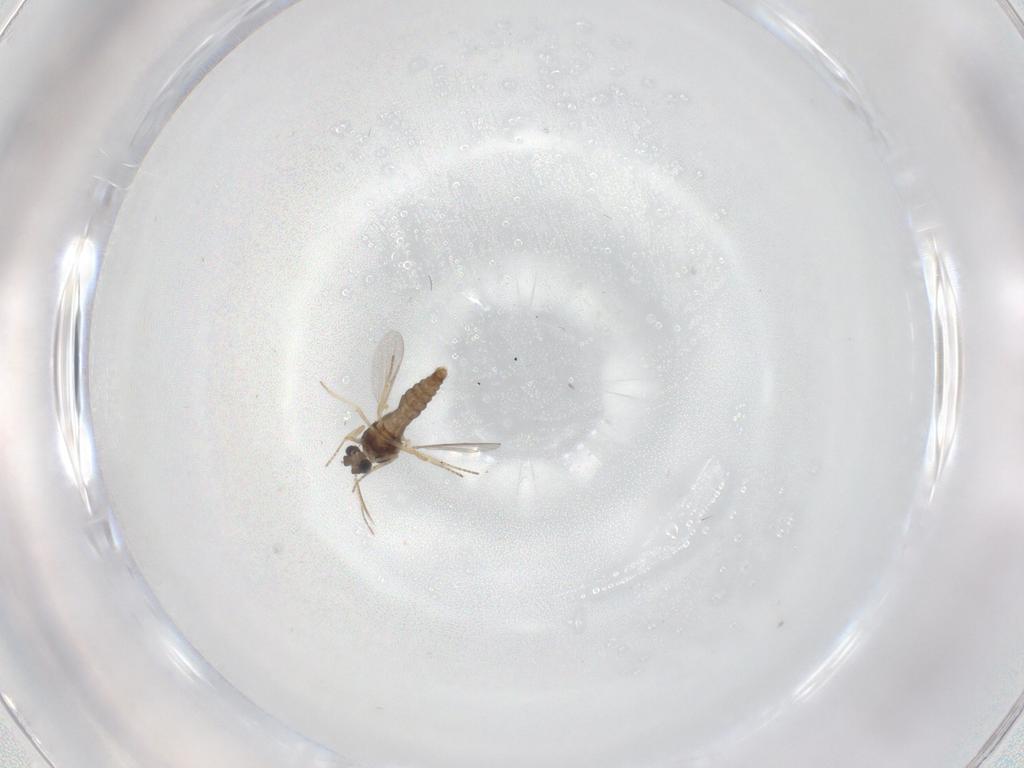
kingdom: Animalia
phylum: Arthropoda
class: Insecta
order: Diptera
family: Ceratopogonidae
